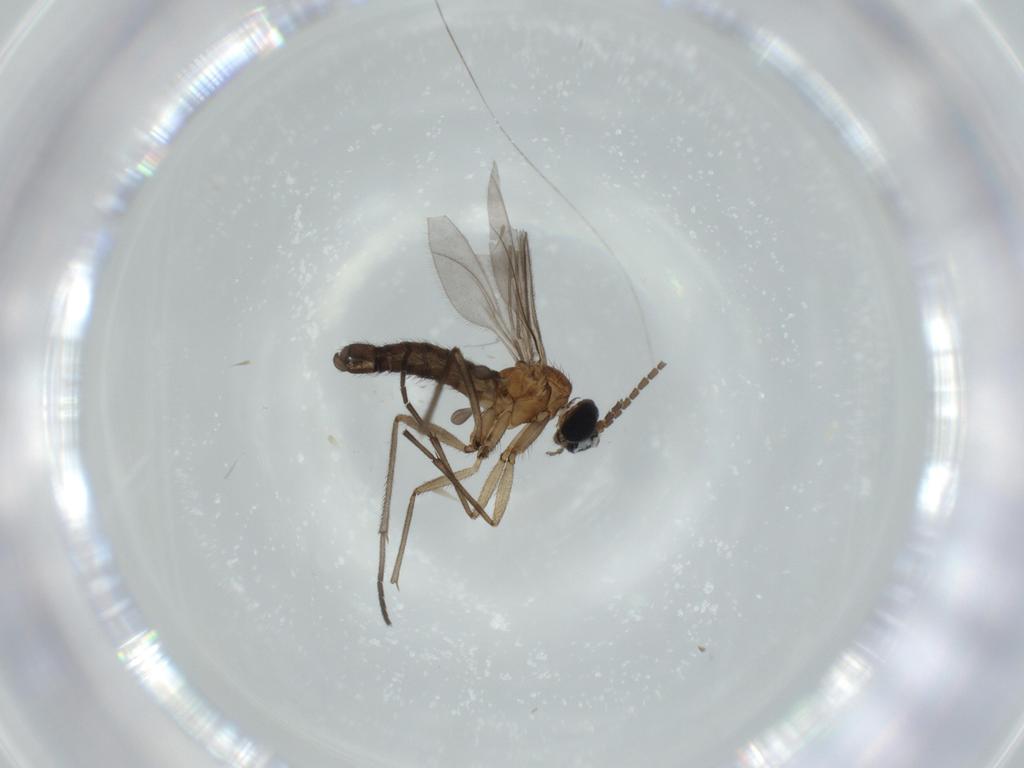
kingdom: Animalia
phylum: Arthropoda
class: Insecta
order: Diptera
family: Sciaridae
